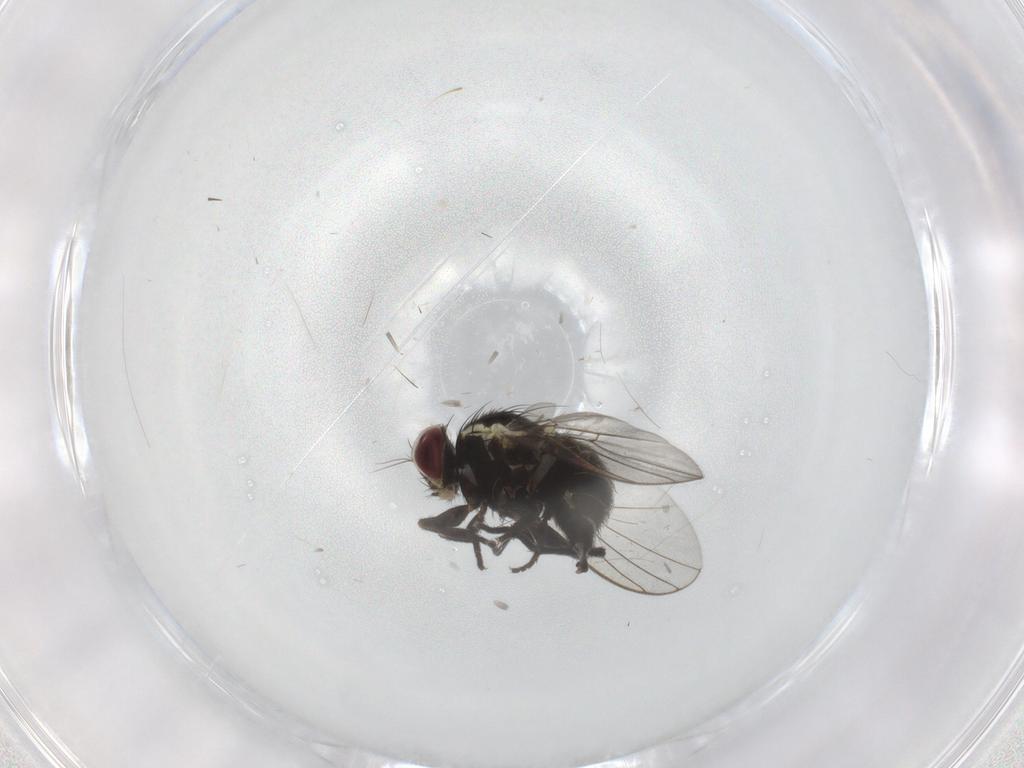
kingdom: Animalia
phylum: Arthropoda
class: Insecta
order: Diptera
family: Agromyzidae
